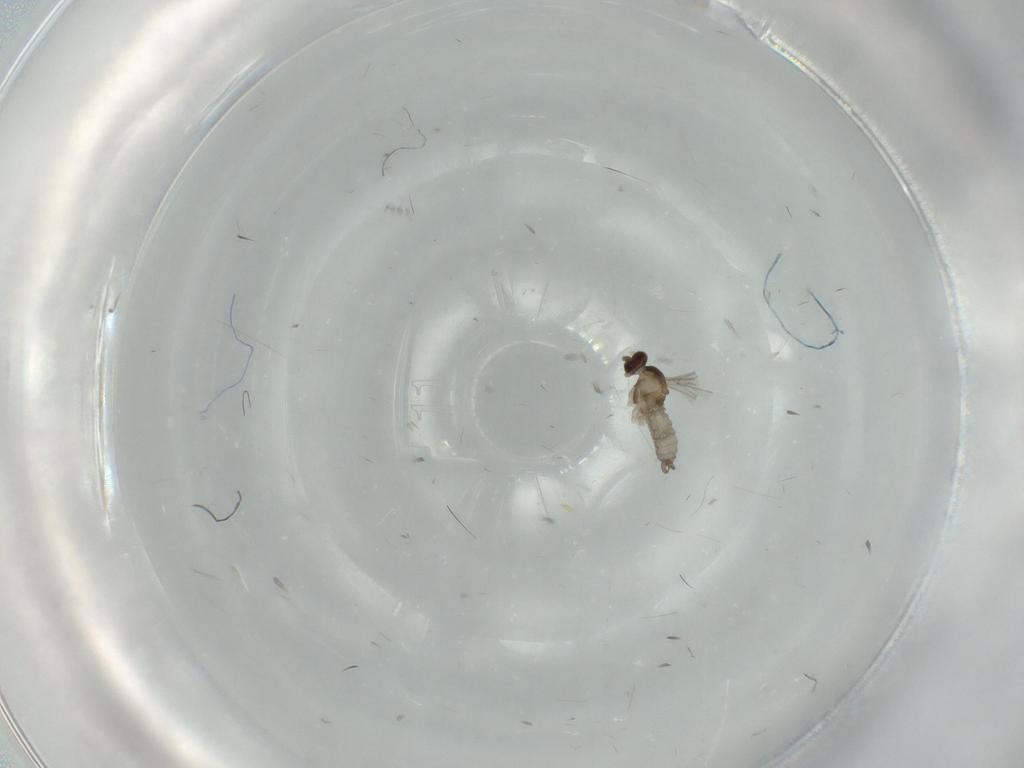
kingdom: Animalia
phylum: Arthropoda
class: Insecta
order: Diptera
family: Cecidomyiidae
